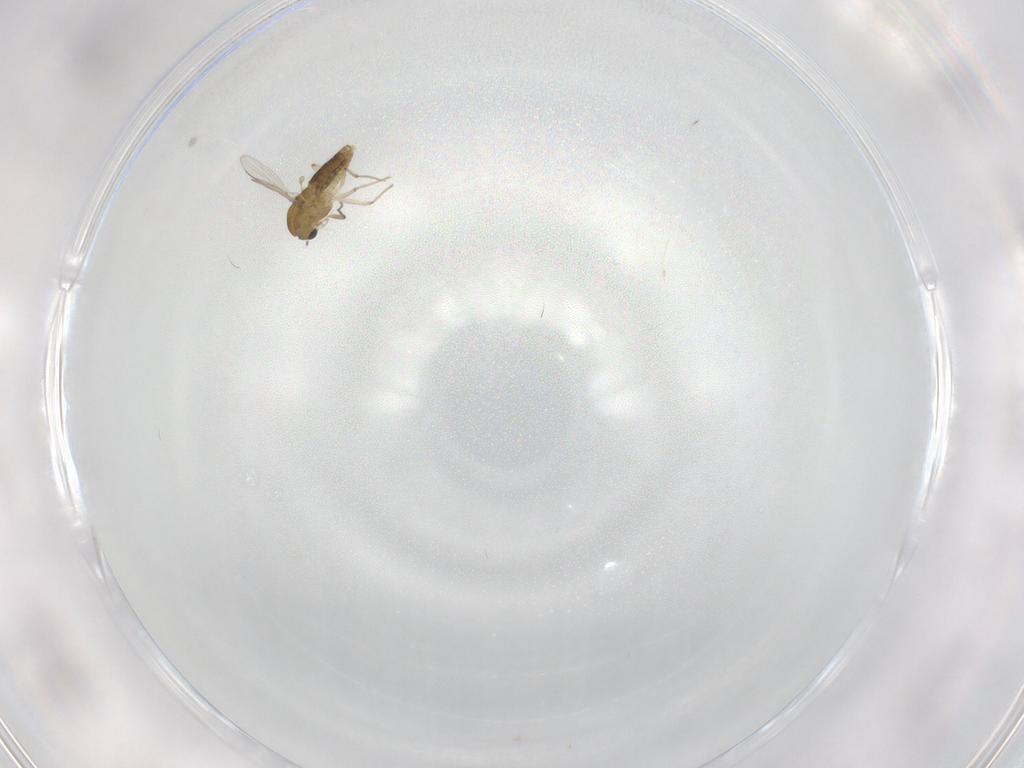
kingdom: Animalia
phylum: Arthropoda
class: Insecta
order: Diptera
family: Chironomidae
